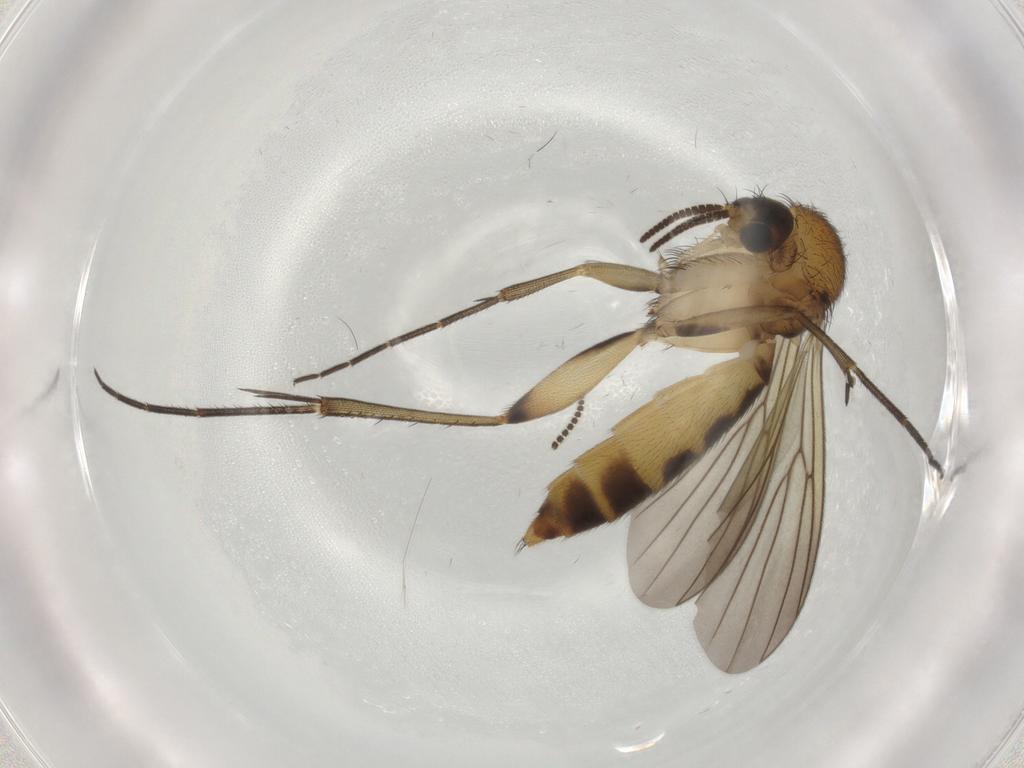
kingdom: Animalia
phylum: Arthropoda
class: Insecta
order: Diptera
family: Mycetophilidae
